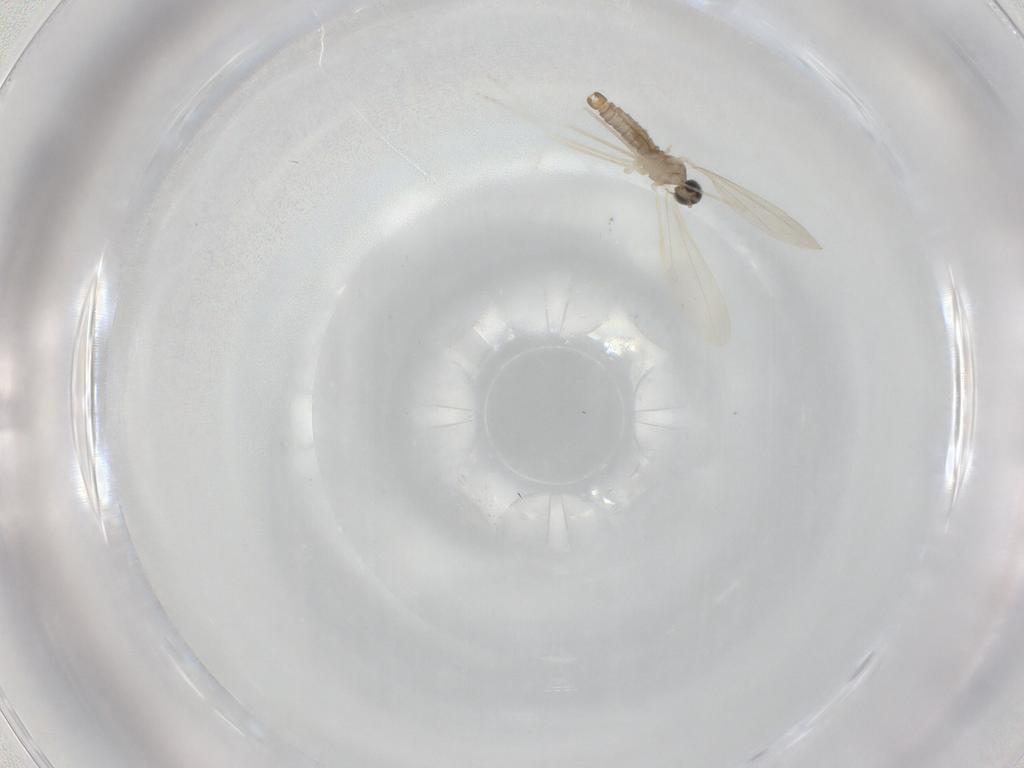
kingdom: Animalia
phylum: Arthropoda
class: Insecta
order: Diptera
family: Cecidomyiidae
